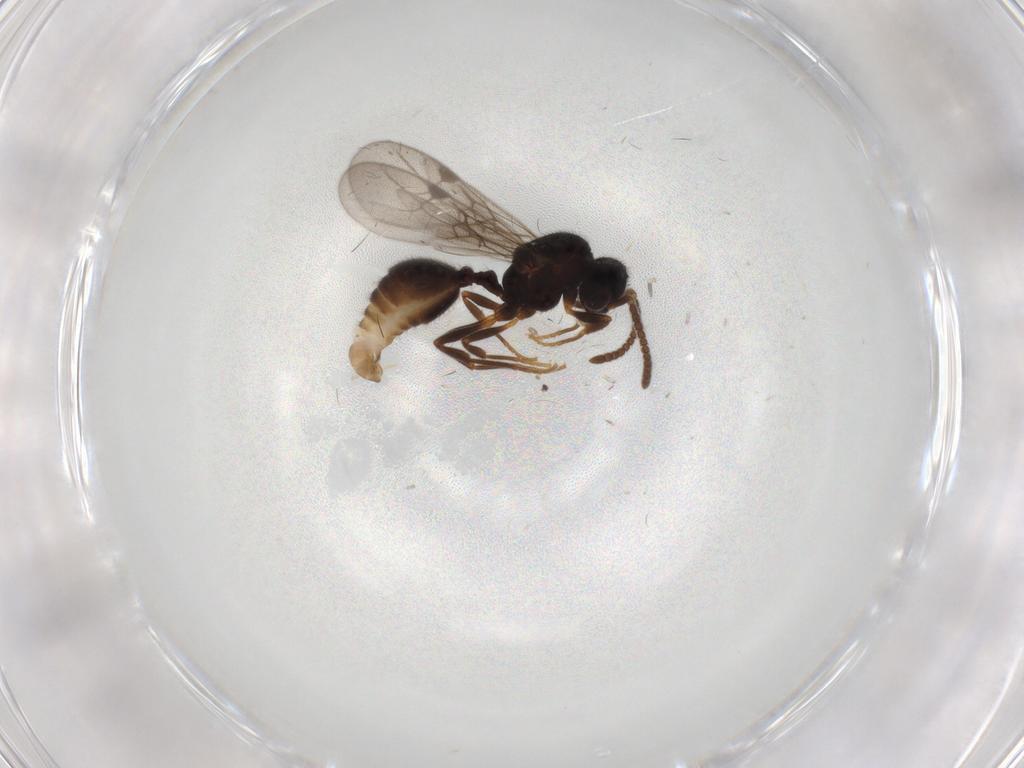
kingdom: Animalia
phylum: Arthropoda
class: Insecta
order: Hymenoptera
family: Formicidae
